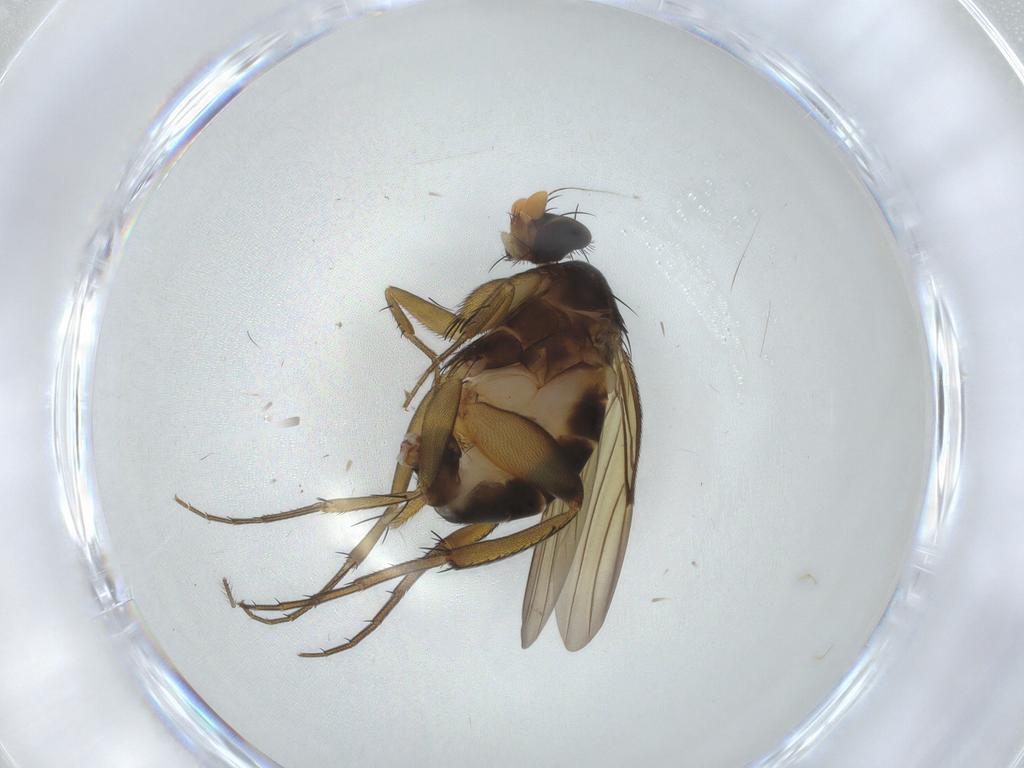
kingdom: Animalia
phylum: Arthropoda
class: Insecta
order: Diptera
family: Phoridae
